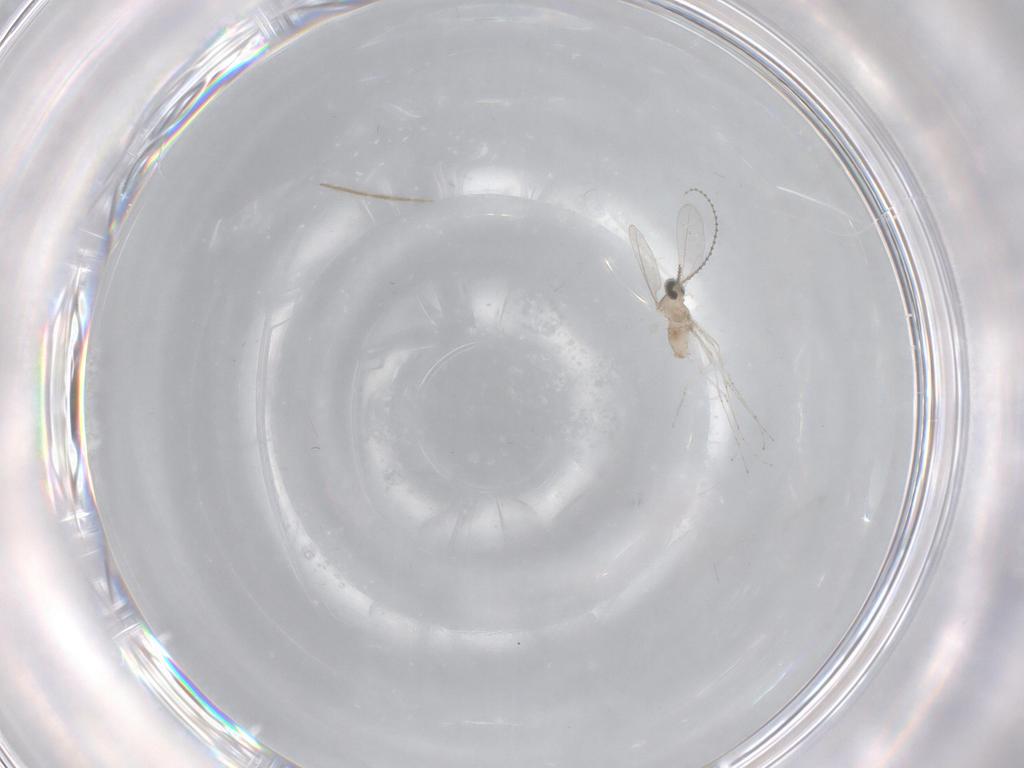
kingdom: Animalia
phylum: Arthropoda
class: Insecta
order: Diptera
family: Chironomidae
